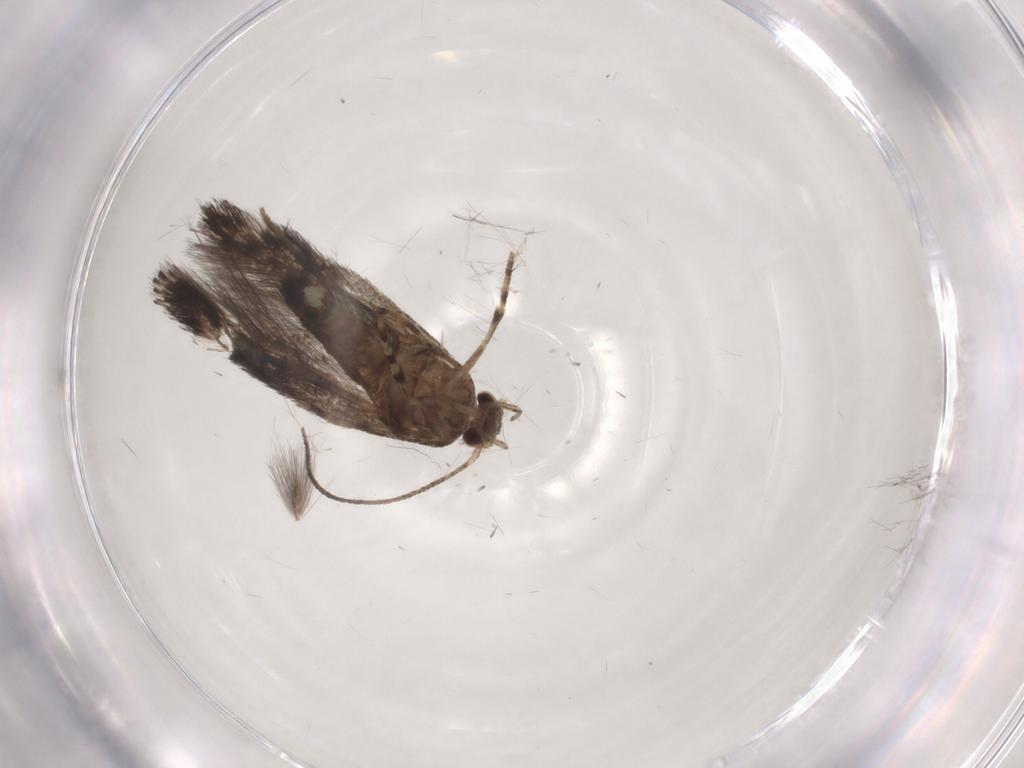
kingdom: Animalia
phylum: Arthropoda
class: Insecta
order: Lepidoptera
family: Elachistidae
